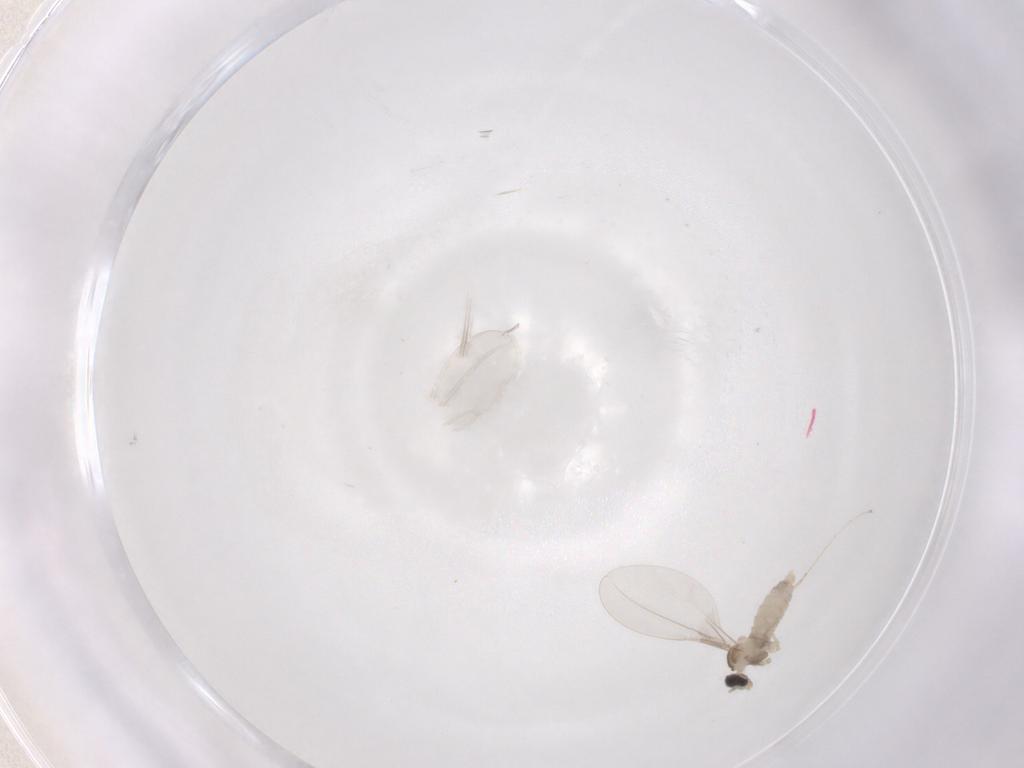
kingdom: Animalia
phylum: Arthropoda
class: Insecta
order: Diptera
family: Cecidomyiidae
